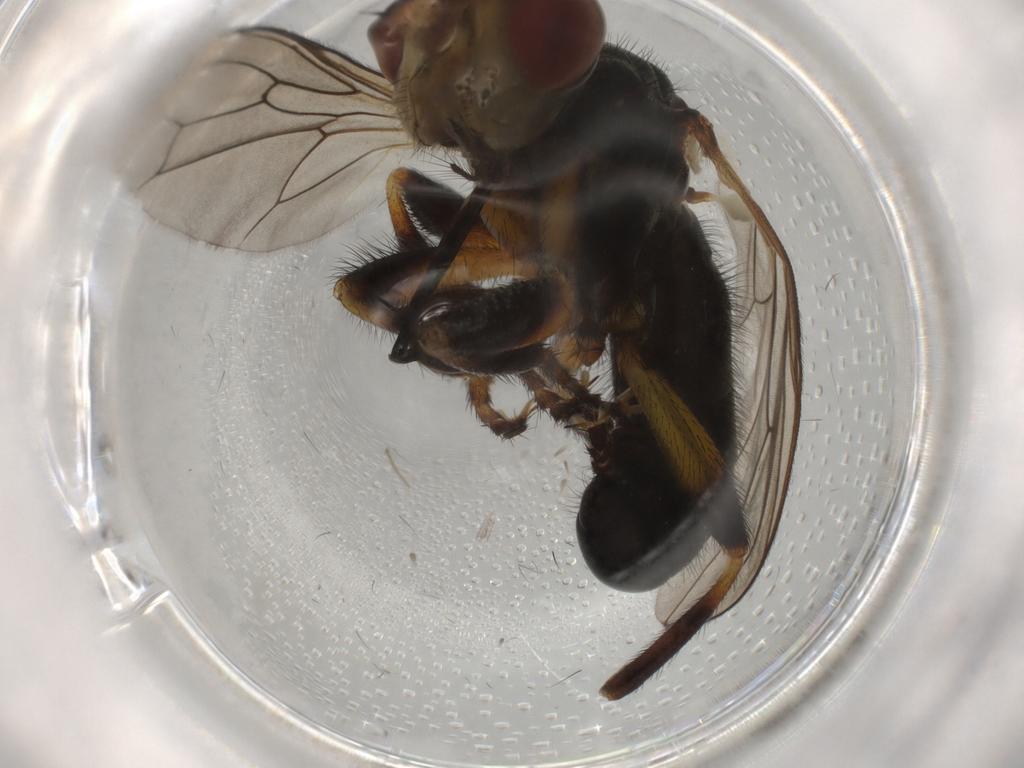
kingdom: Animalia
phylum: Arthropoda
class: Insecta
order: Diptera
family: Conopidae
